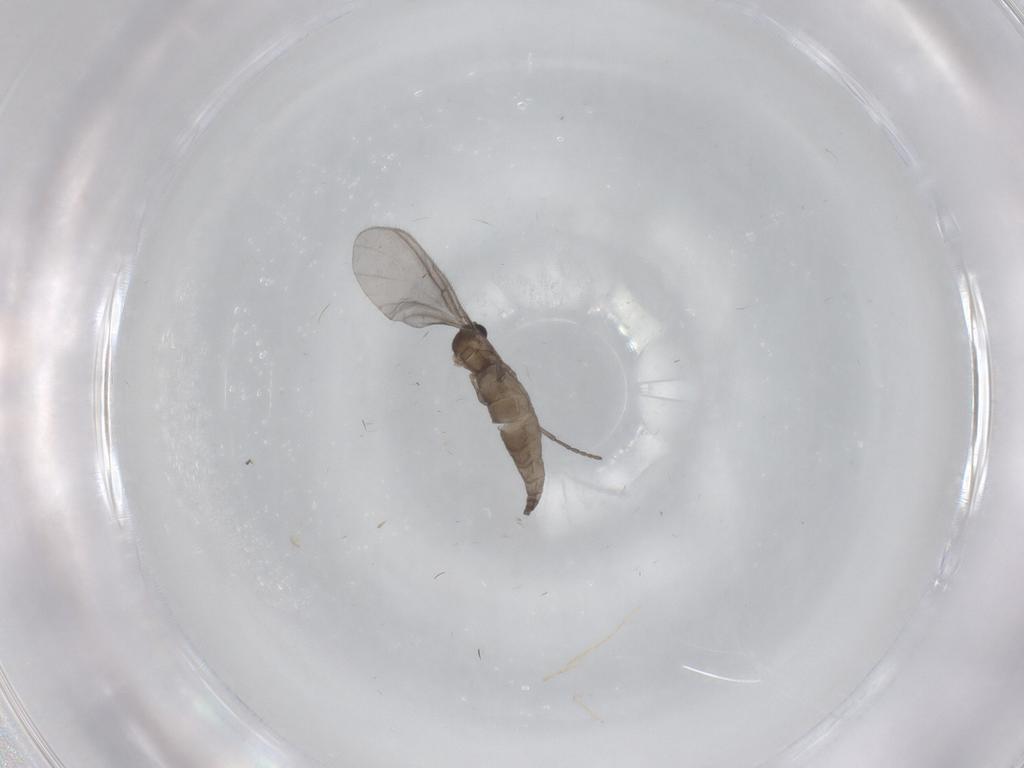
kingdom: Animalia
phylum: Arthropoda
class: Insecta
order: Diptera
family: Sciaridae
